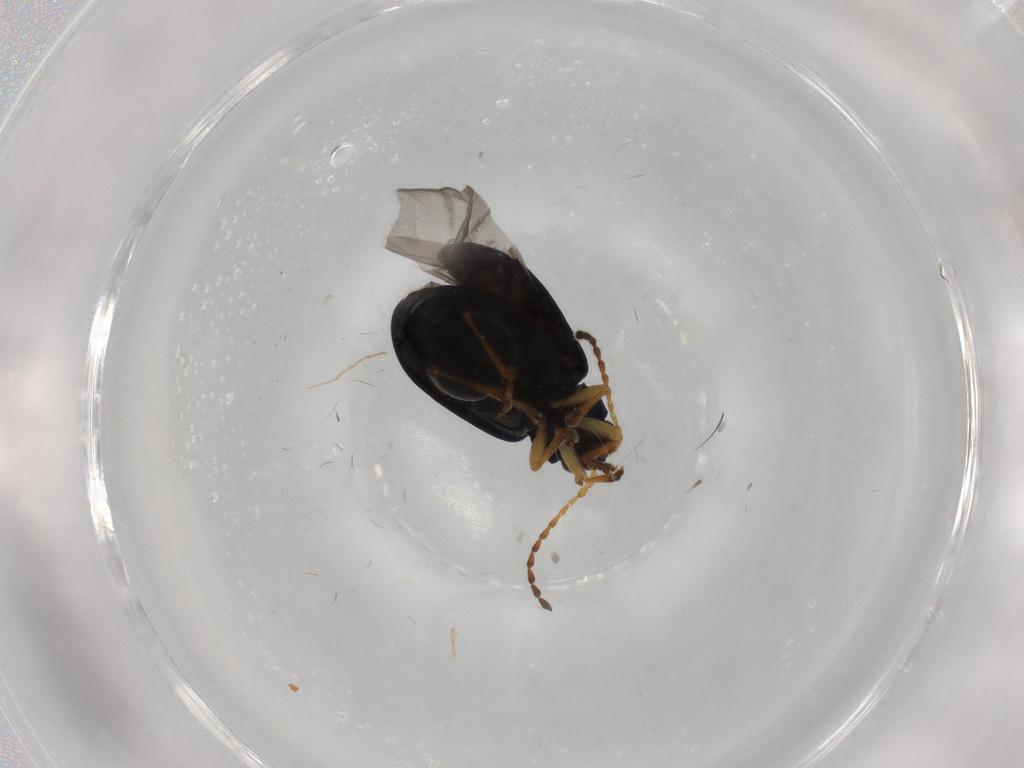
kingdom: Animalia
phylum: Arthropoda
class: Insecta
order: Coleoptera
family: Chrysomelidae
